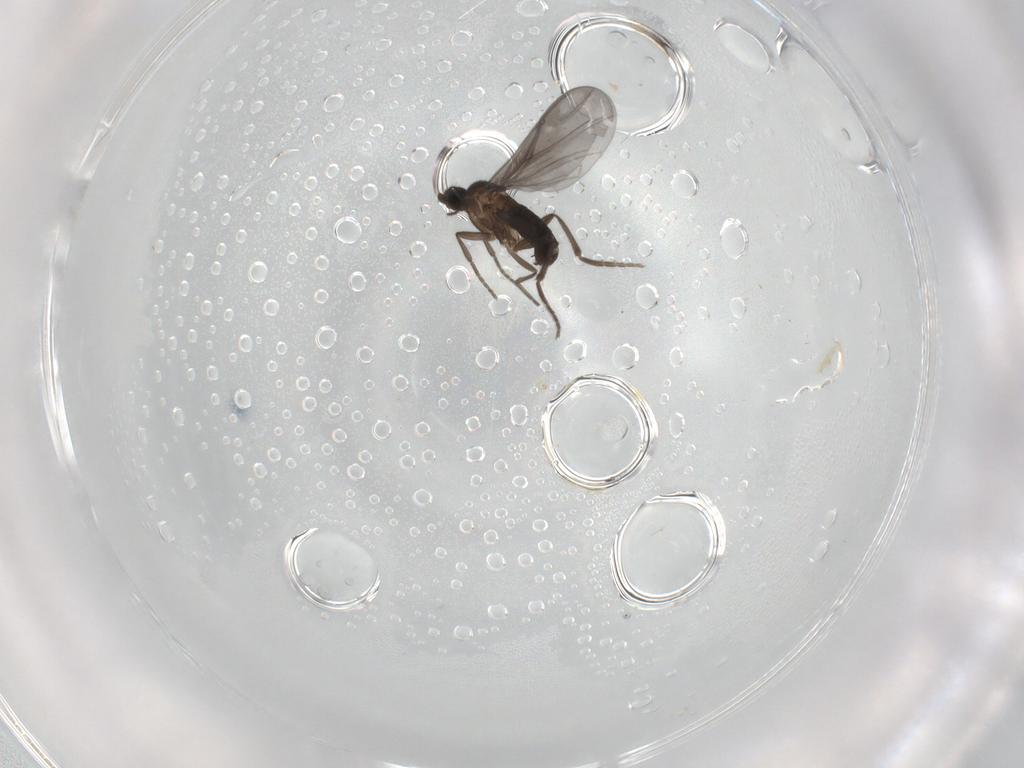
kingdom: Animalia
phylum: Arthropoda
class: Insecta
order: Diptera
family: Phoridae
